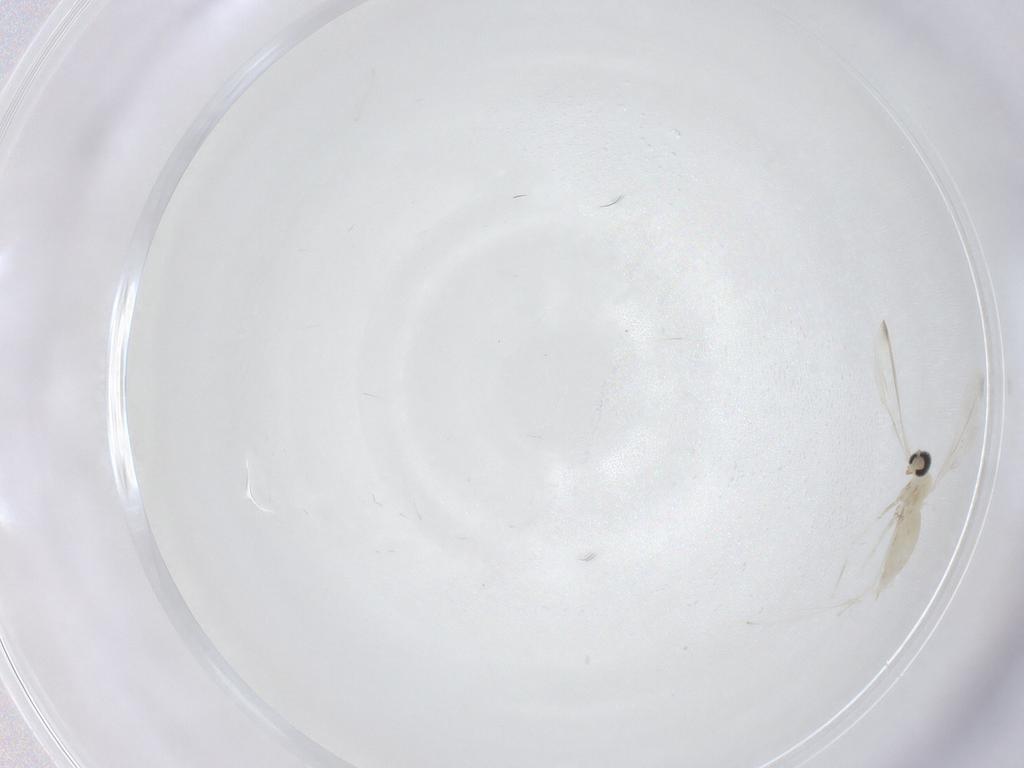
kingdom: Animalia
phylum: Arthropoda
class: Insecta
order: Diptera
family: Cecidomyiidae
